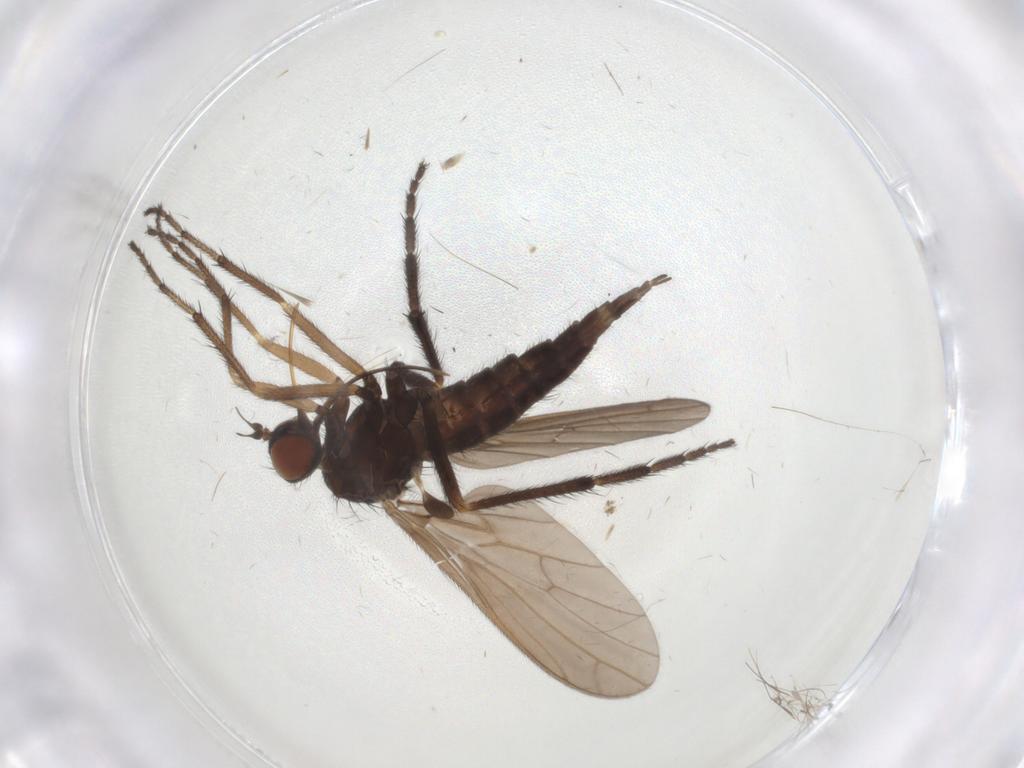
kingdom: Animalia
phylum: Arthropoda
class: Insecta
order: Diptera
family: Empididae
